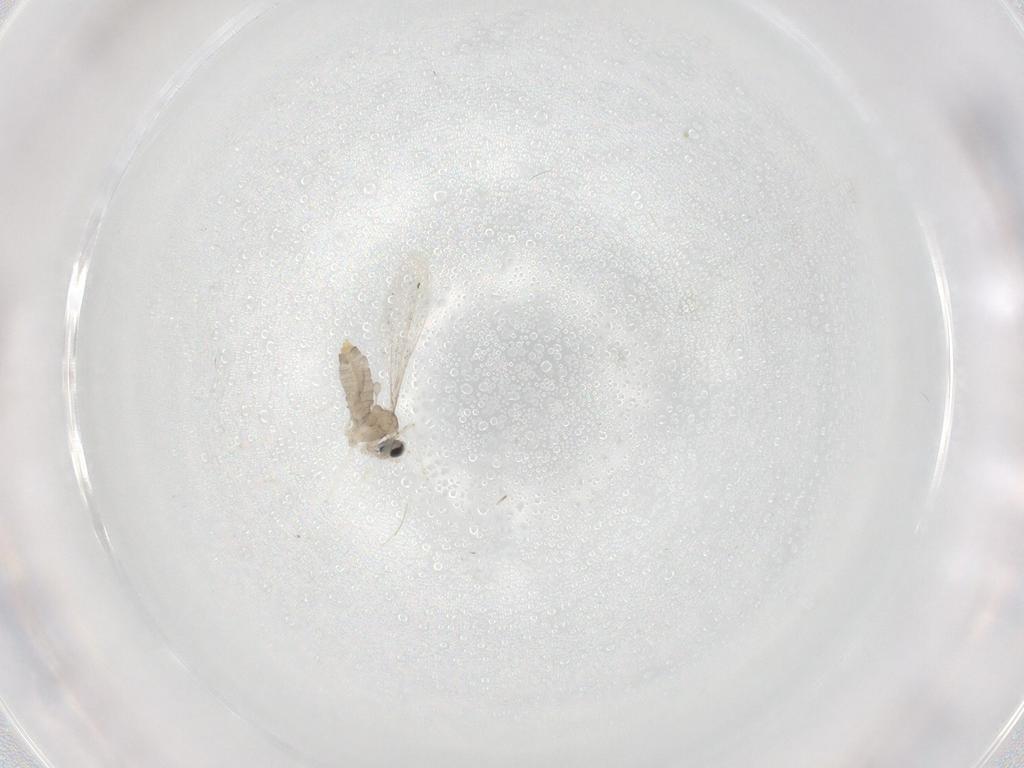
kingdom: Animalia
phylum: Arthropoda
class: Insecta
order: Diptera
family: Cecidomyiidae
